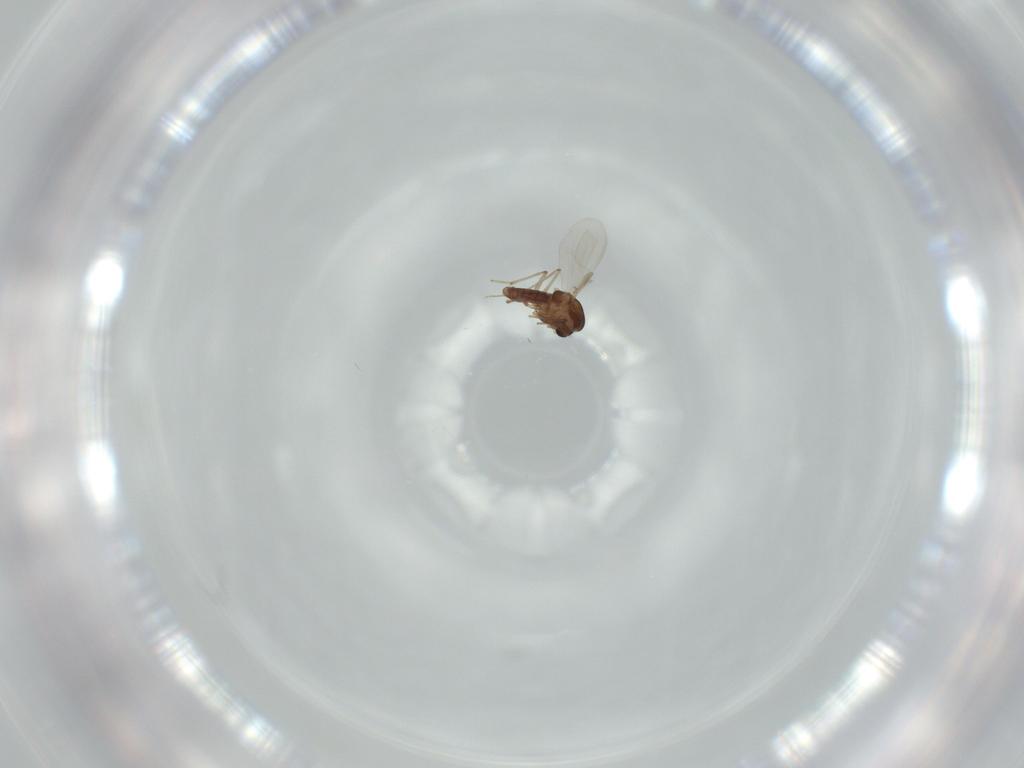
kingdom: Animalia
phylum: Arthropoda
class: Insecta
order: Diptera
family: Chloropidae
